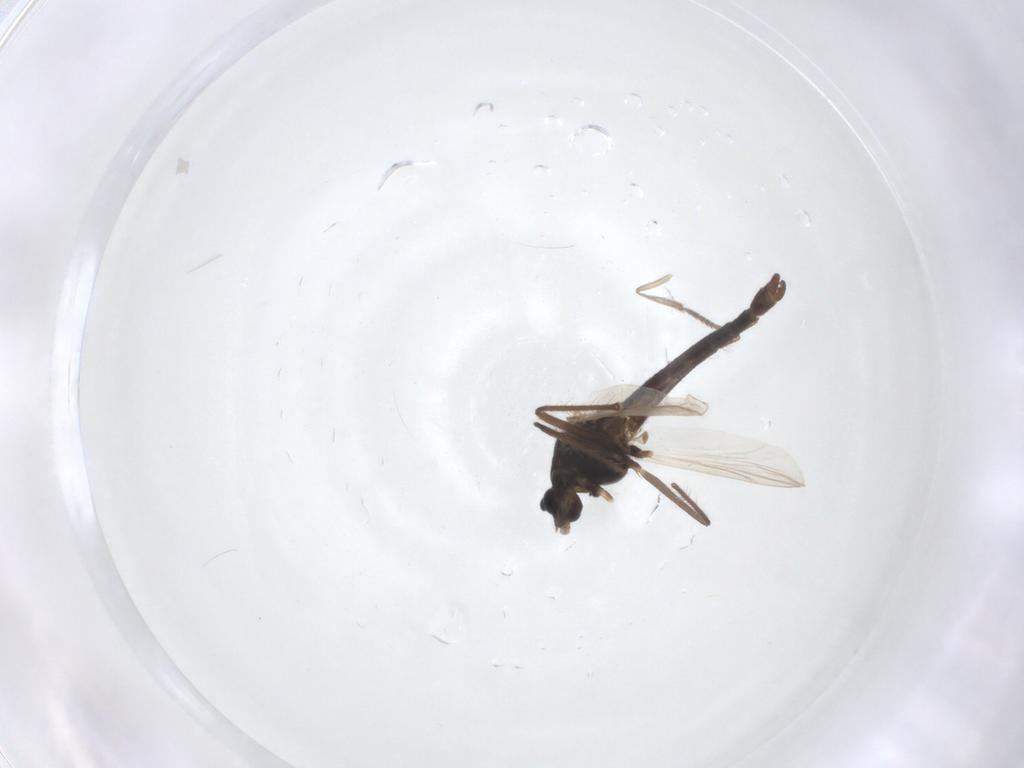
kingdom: Animalia
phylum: Arthropoda
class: Insecta
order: Diptera
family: Chironomidae
